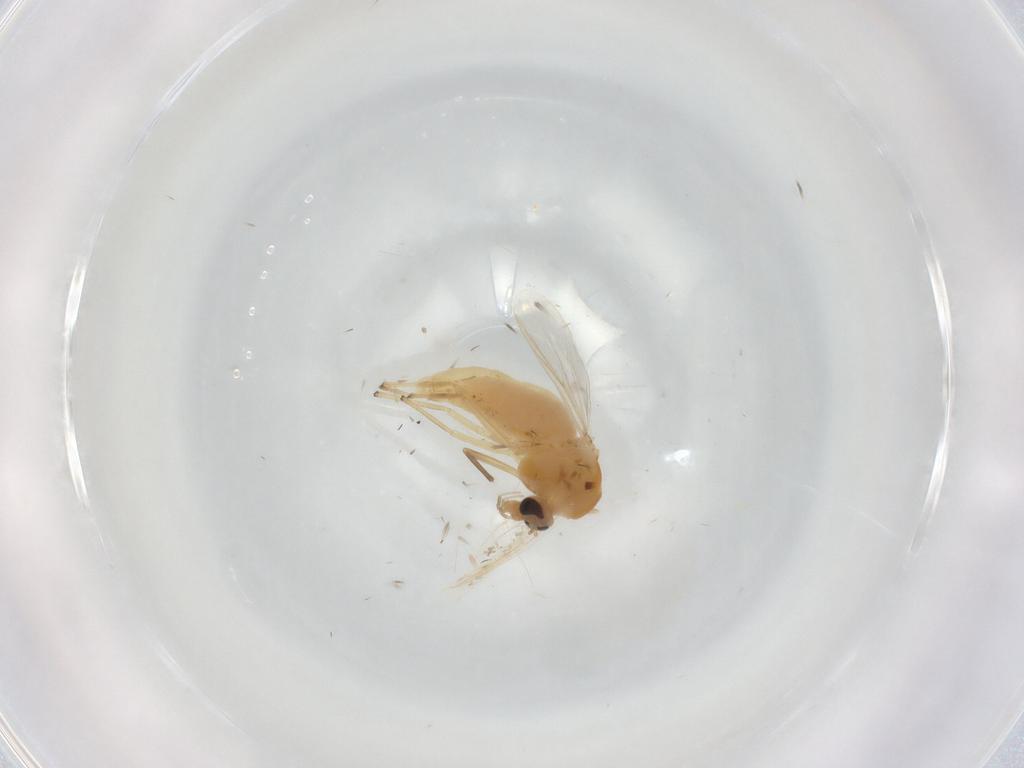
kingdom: Animalia
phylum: Arthropoda
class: Insecta
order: Diptera
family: Chironomidae
